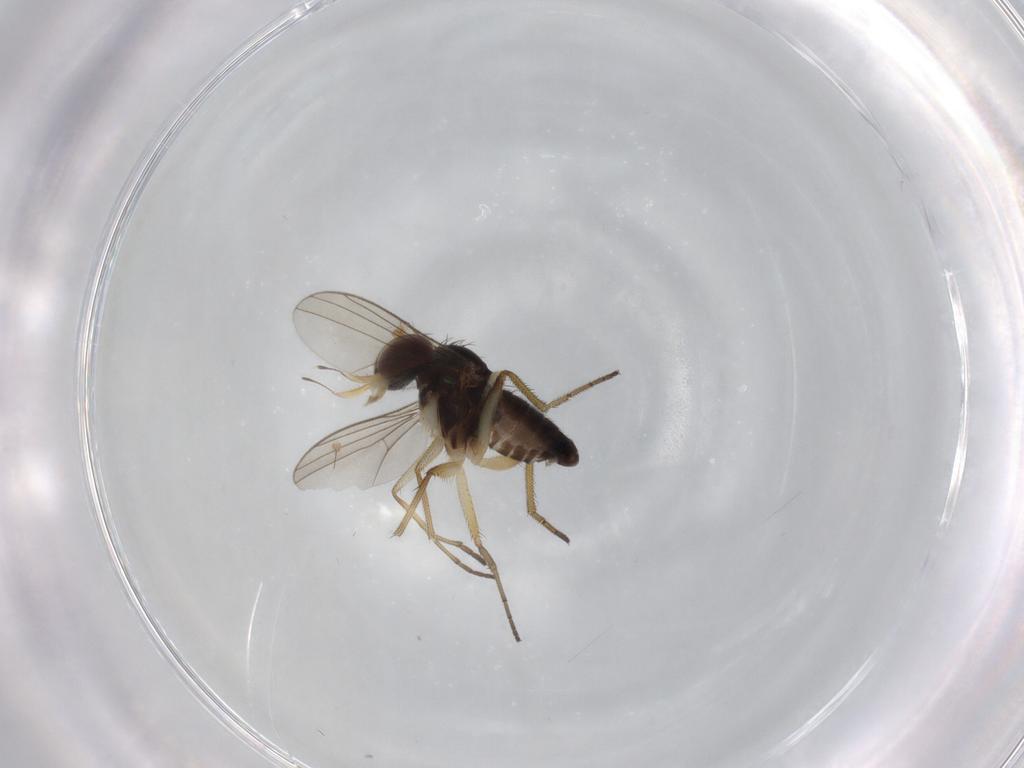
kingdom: Animalia
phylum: Arthropoda
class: Insecta
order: Diptera
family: Dolichopodidae
